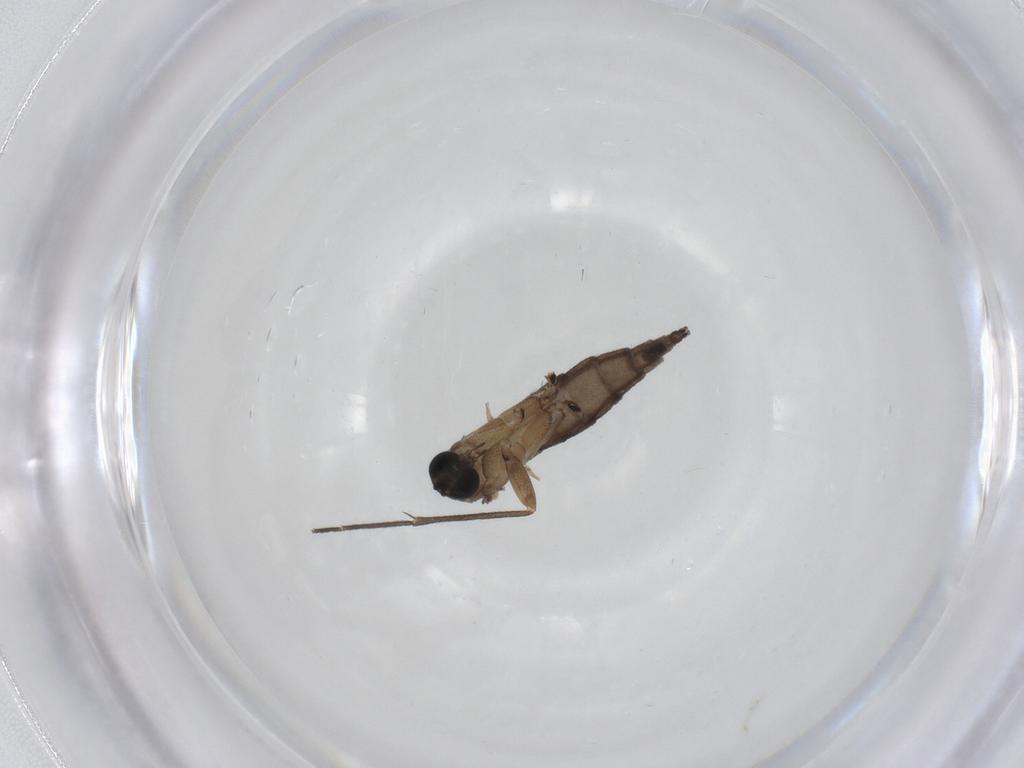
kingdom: Animalia
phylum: Arthropoda
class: Insecta
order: Diptera
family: Sciaridae
